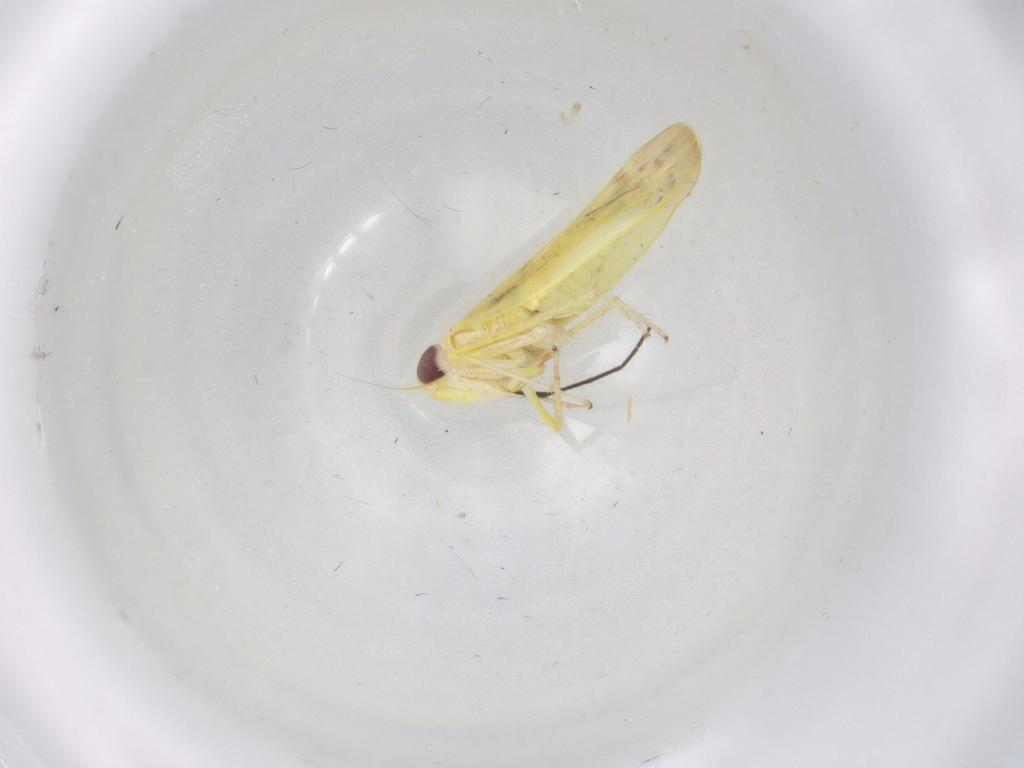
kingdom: Animalia
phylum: Arthropoda
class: Insecta
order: Hemiptera
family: Cicadellidae
